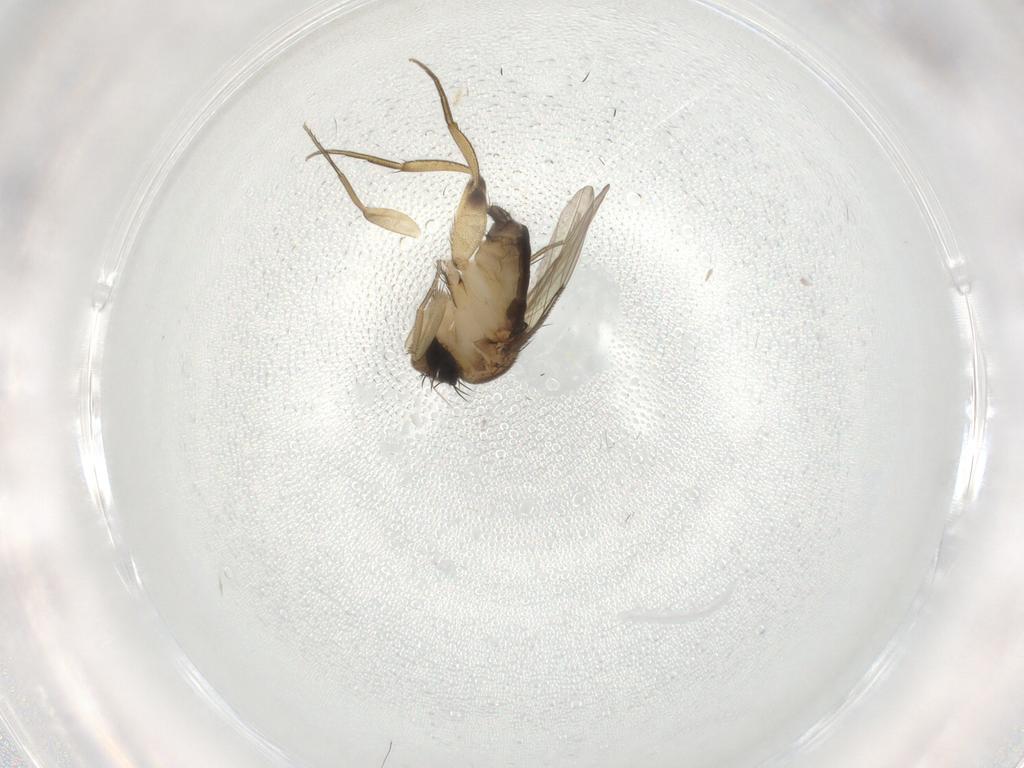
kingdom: Animalia
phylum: Arthropoda
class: Insecta
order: Diptera
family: Phoridae
